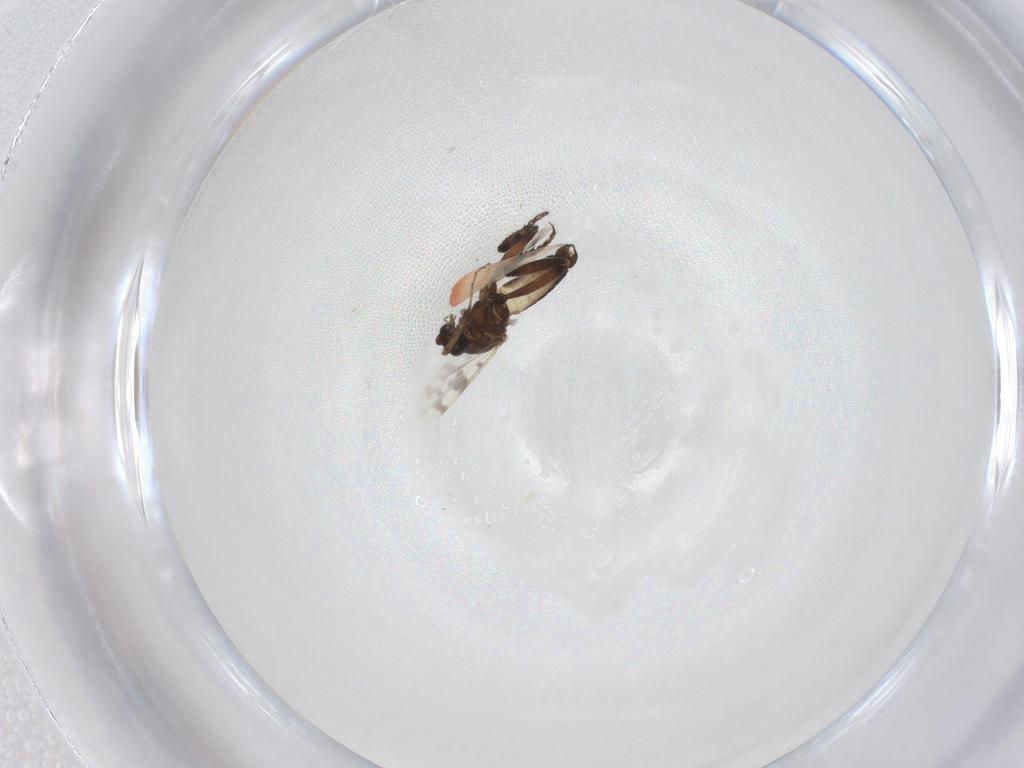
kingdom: Animalia
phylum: Arthropoda
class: Insecta
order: Diptera
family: Ceratopogonidae
